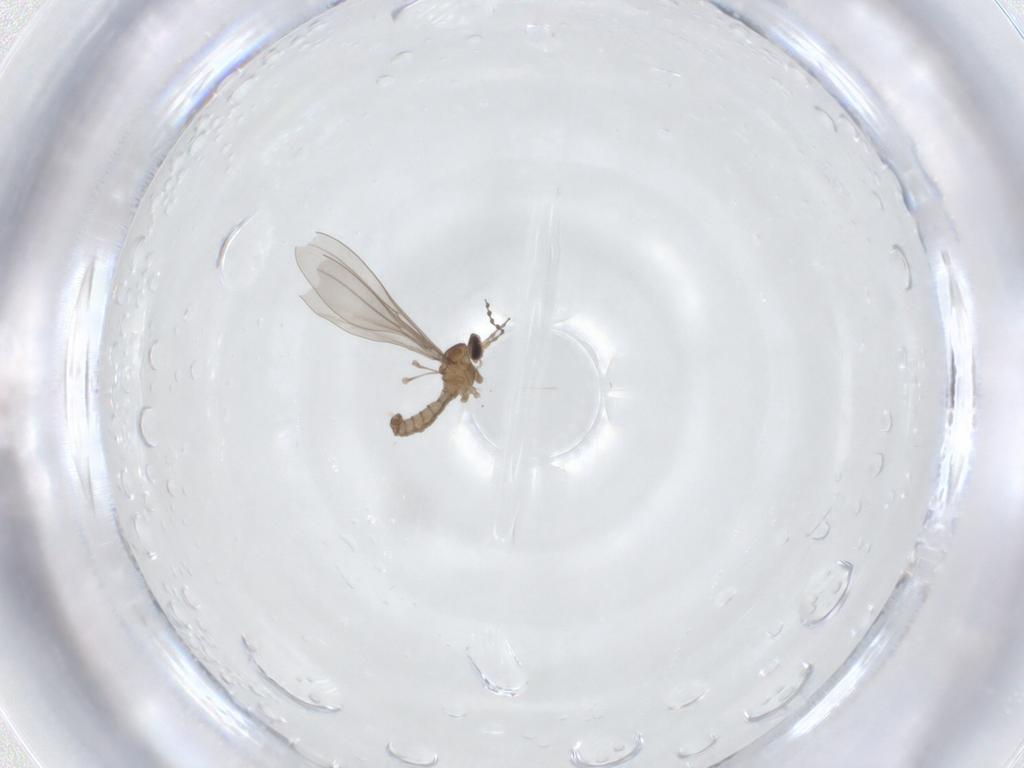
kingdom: Animalia
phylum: Arthropoda
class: Insecta
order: Diptera
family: Cecidomyiidae
